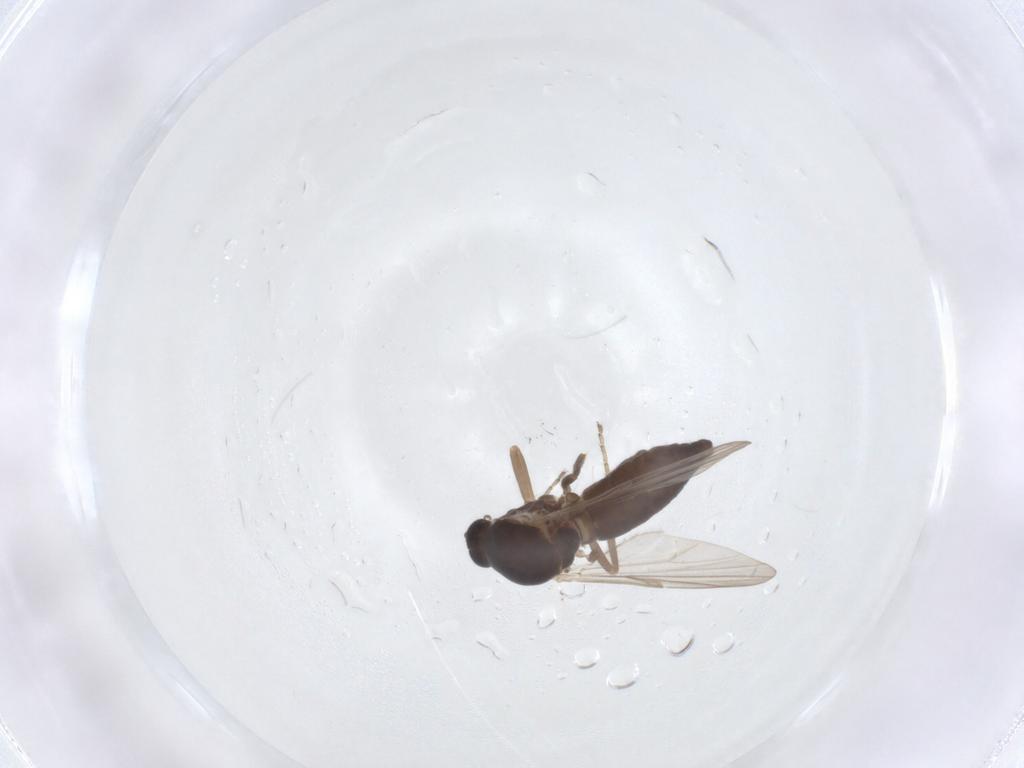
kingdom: Animalia
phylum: Arthropoda
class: Insecta
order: Diptera
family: Ceratopogonidae
